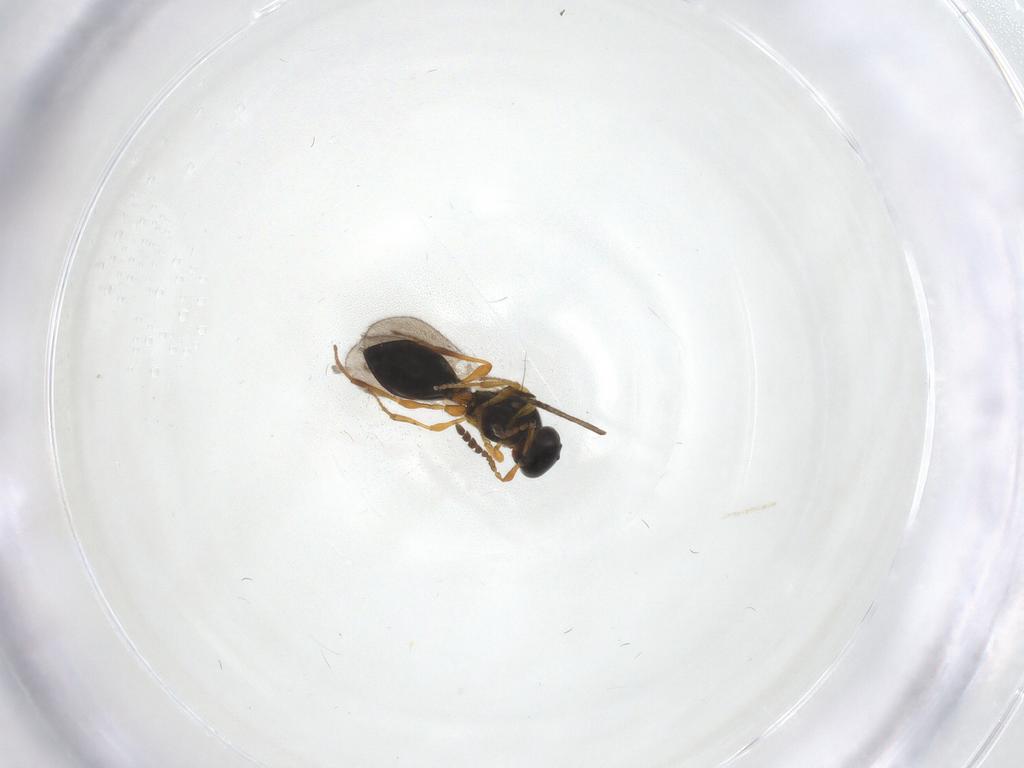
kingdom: Animalia
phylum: Arthropoda
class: Insecta
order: Hymenoptera
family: Platygastridae
